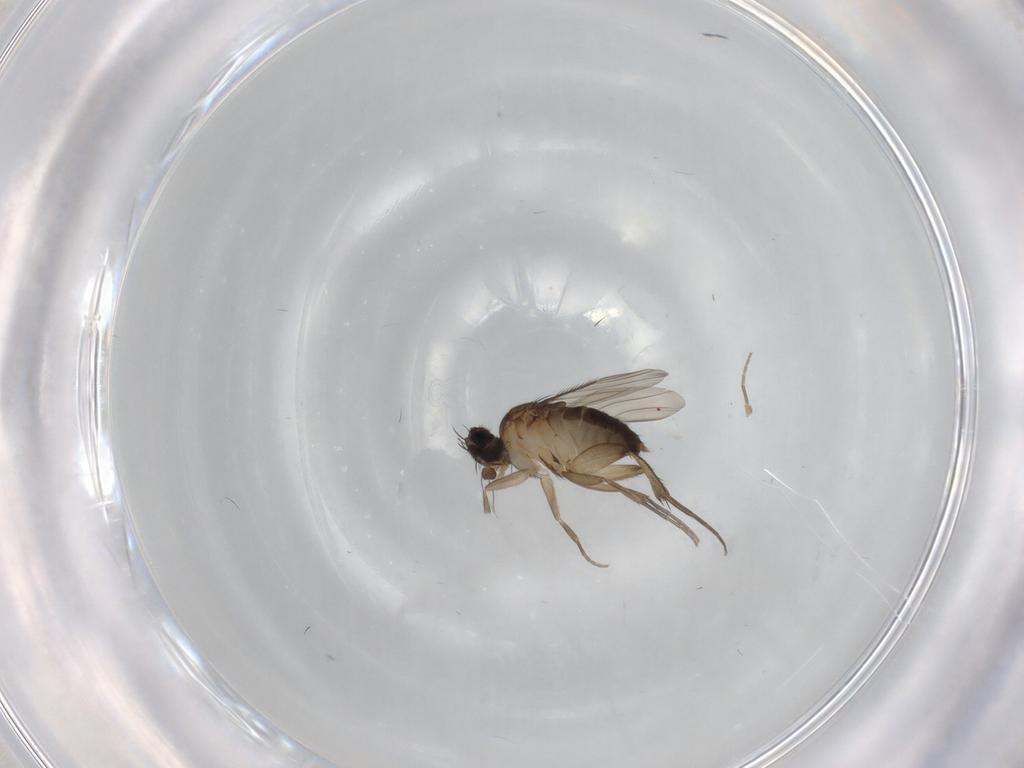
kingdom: Animalia
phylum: Arthropoda
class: Insecta
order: Diptera
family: Phoridae
